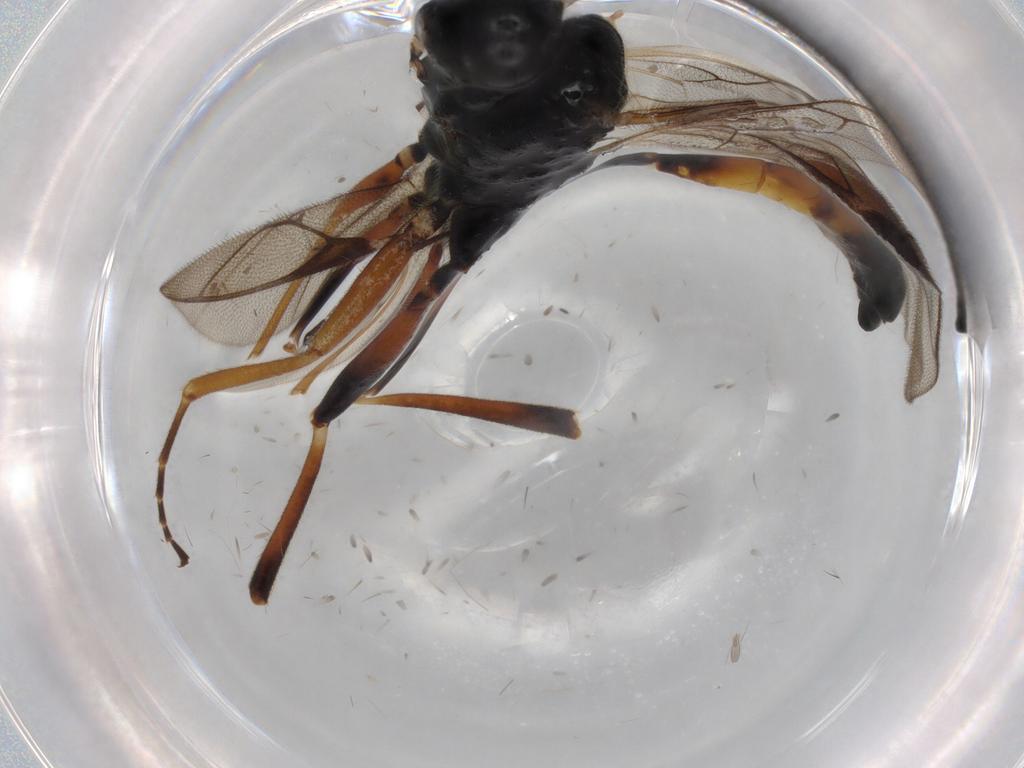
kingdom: Animalia
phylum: Arthropoda
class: Insecta
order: Hymenoptera
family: Ichneumonidae
